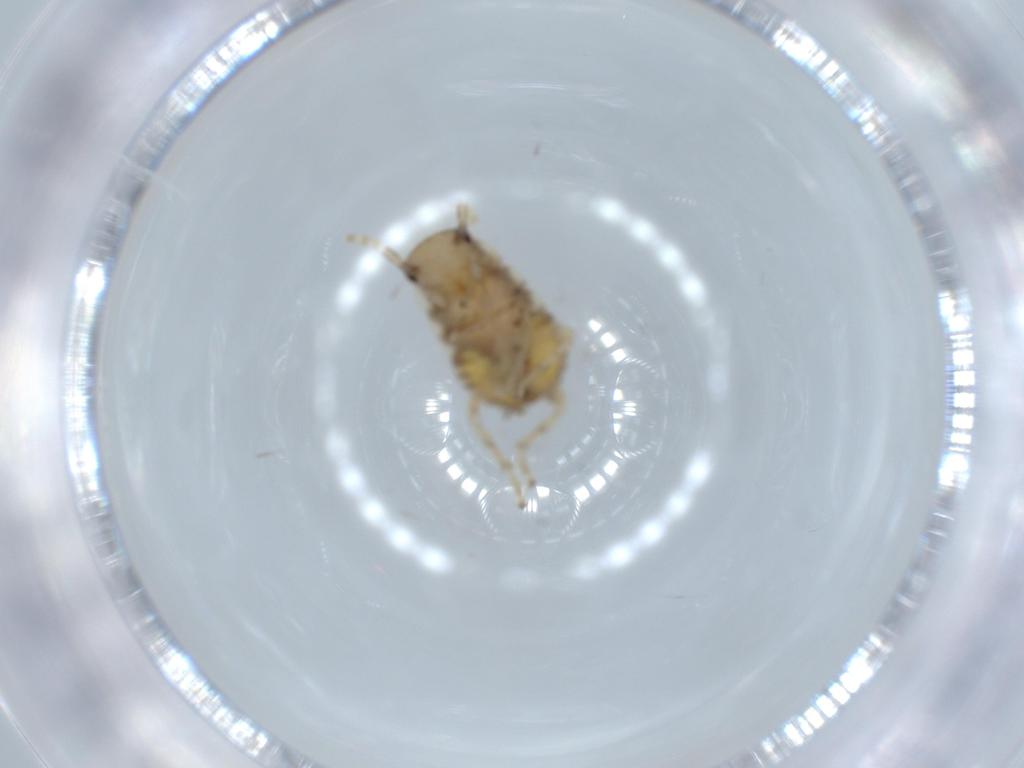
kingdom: Animalia
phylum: Arthropoda
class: Insecta
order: Blattodea
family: Ectobiidae
